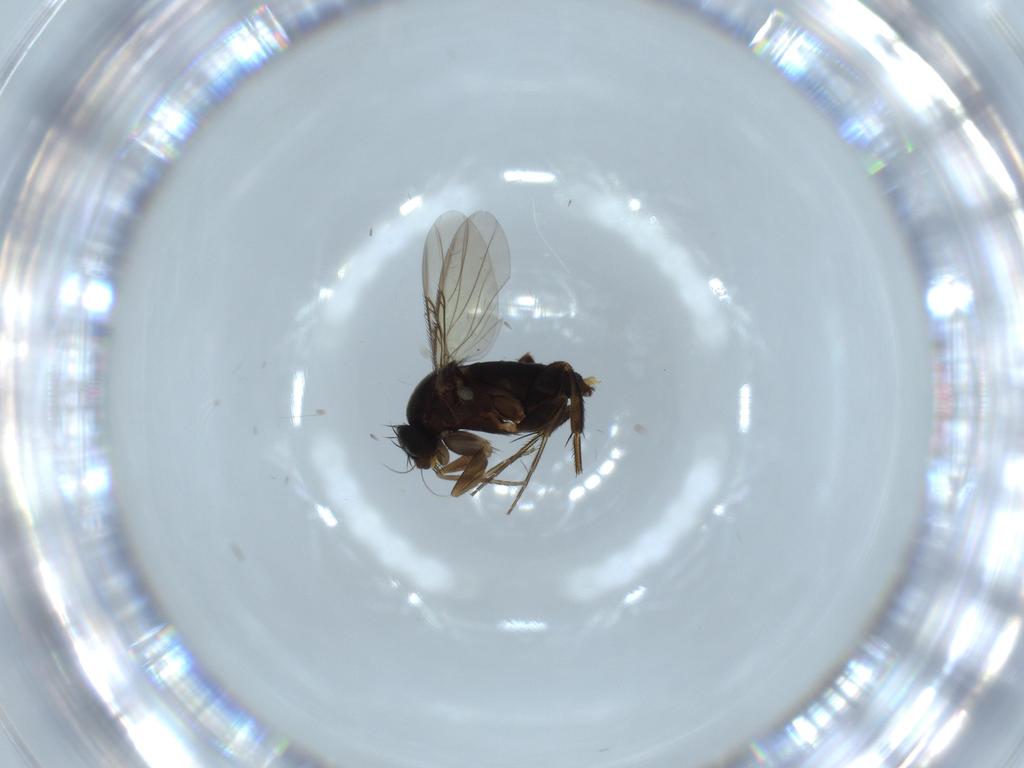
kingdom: Animalia
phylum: Arthropoda
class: Insecta
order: Diptera
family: Phoridae
